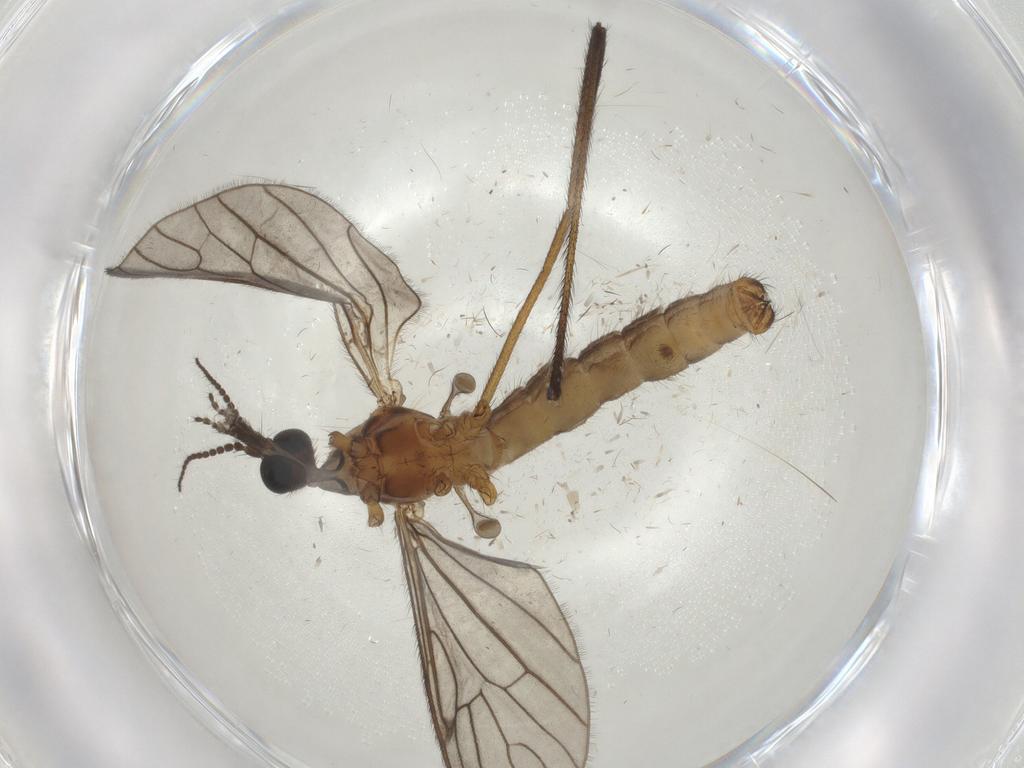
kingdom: Animalia
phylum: Arthropoda
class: Insecta
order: Diptera
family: Limoniidae
